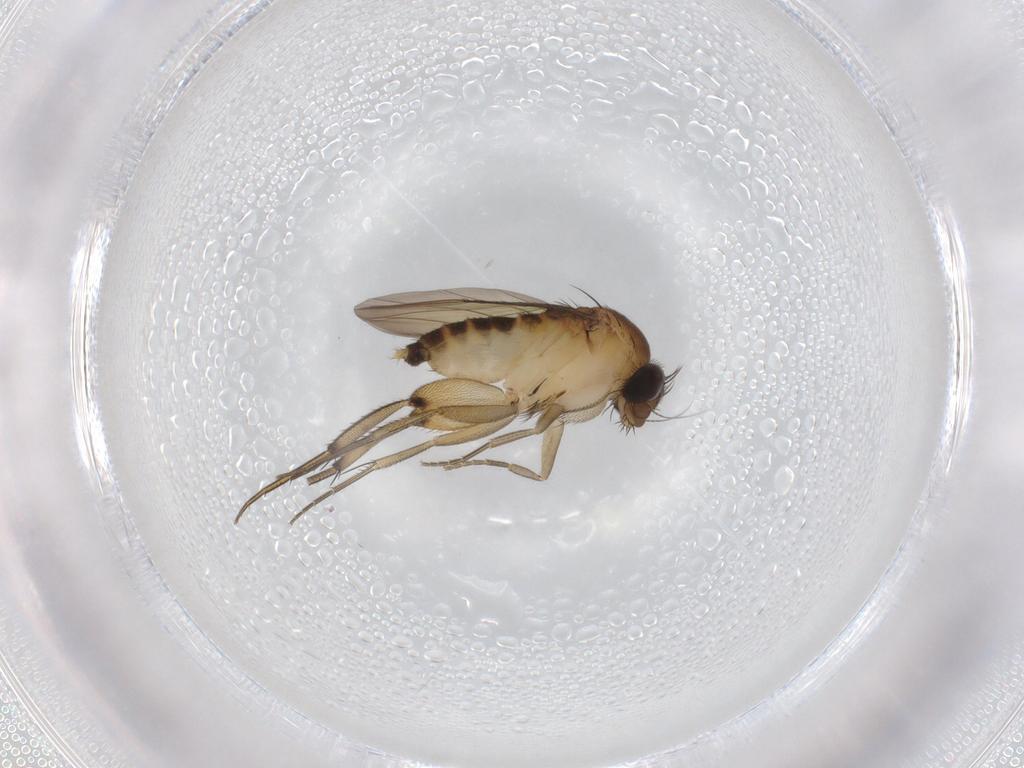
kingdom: Animalia
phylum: Arthropoda
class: Insecta
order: Diptera
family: Phoridae
